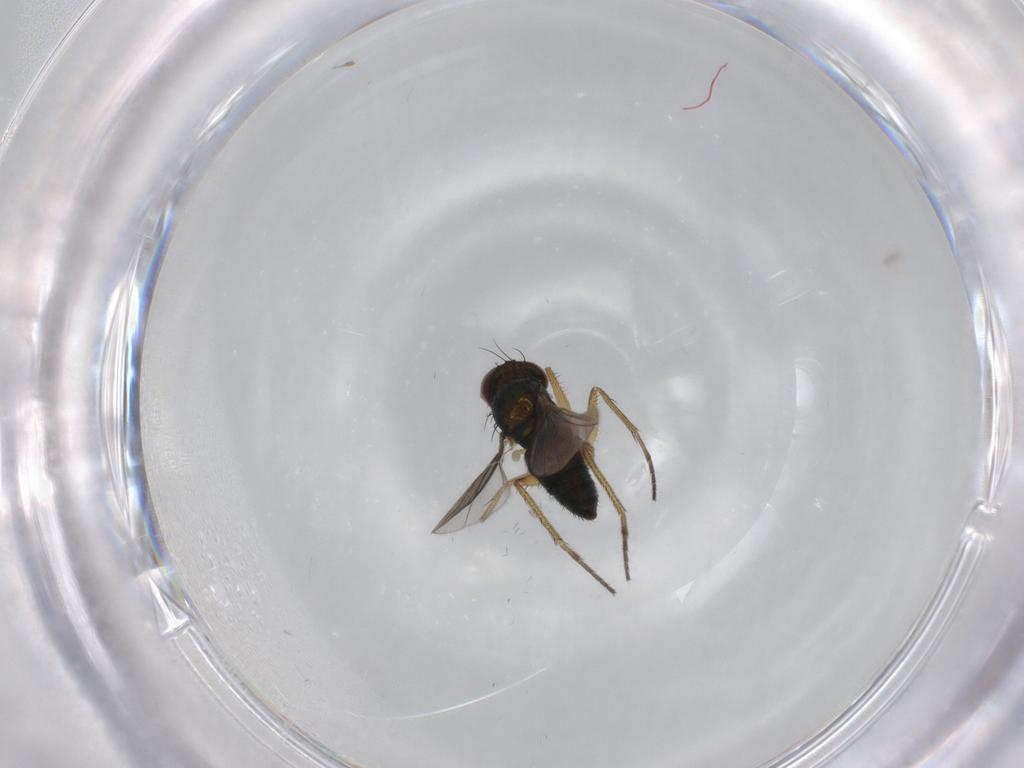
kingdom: Animalia
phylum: Arthropoda
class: Insecta
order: Diptera
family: Dolichopodidae
